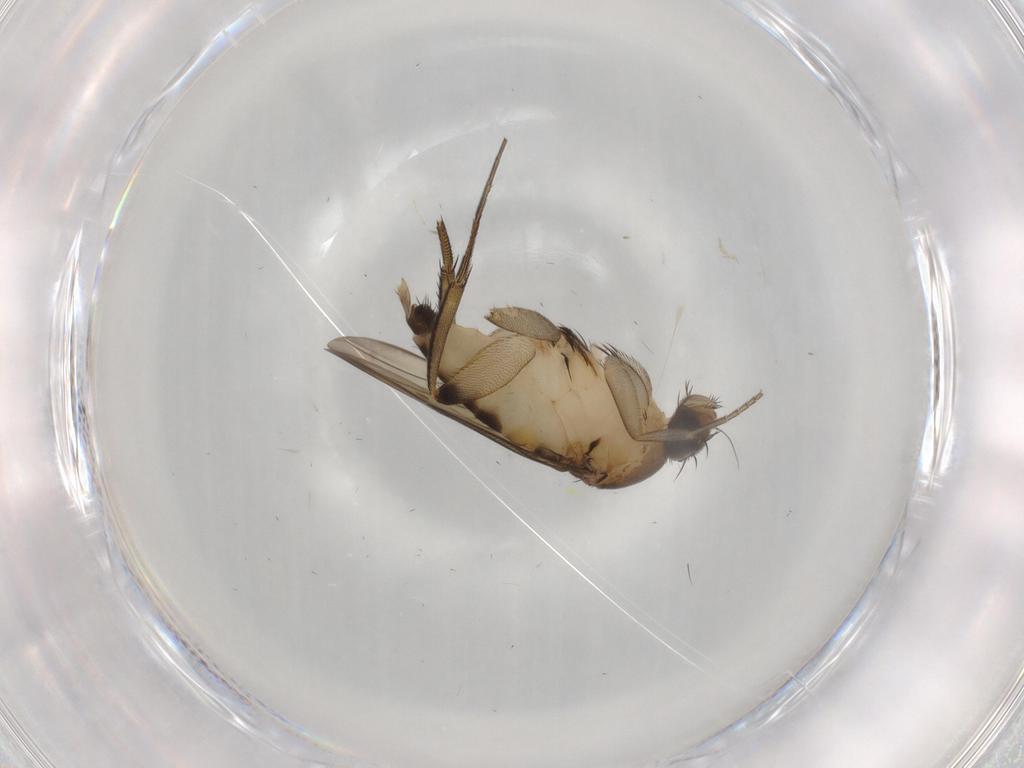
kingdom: Animalia
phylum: Arthropoda
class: Insecta
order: Diptera
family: Phoridae
